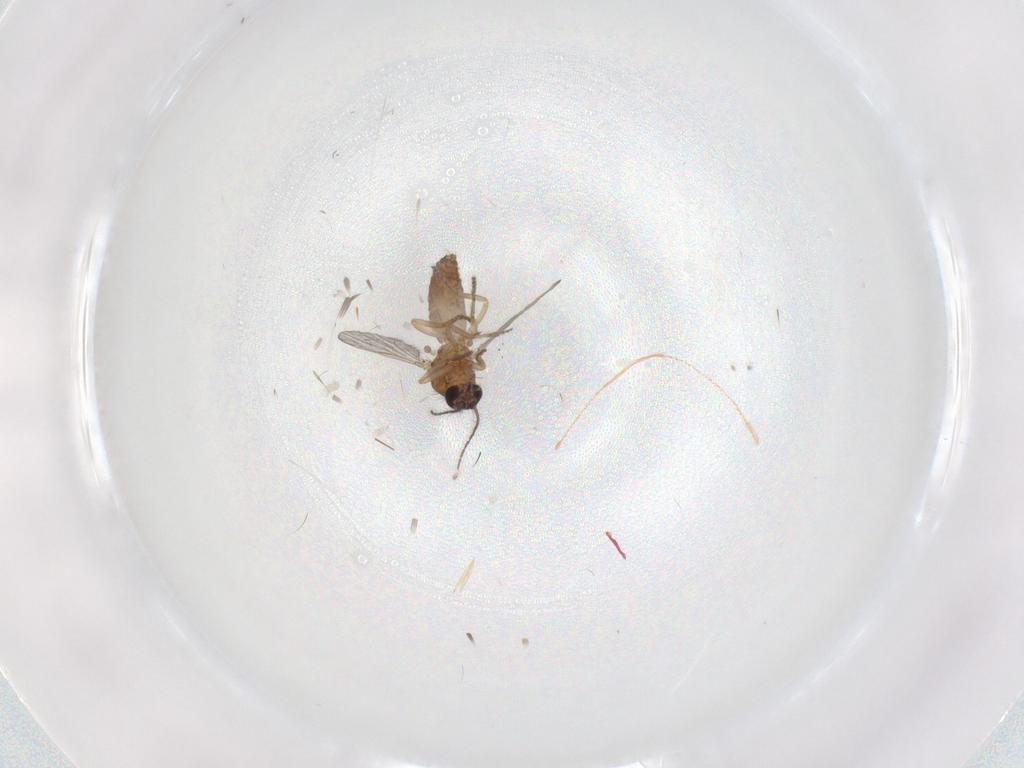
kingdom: Animalia
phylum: Arthropoda
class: Insecta
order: Diptera
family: Ceratopogonidae
